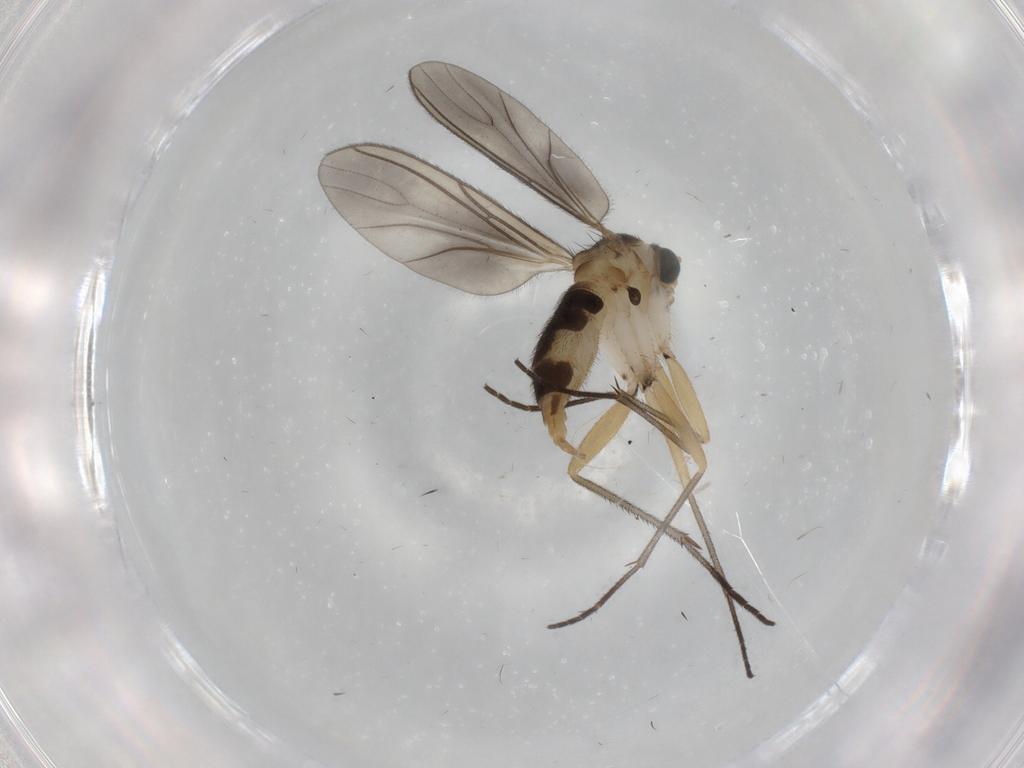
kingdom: Animalia
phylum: Arthropoda
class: Insecta
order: Diptera
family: Sciaridae
